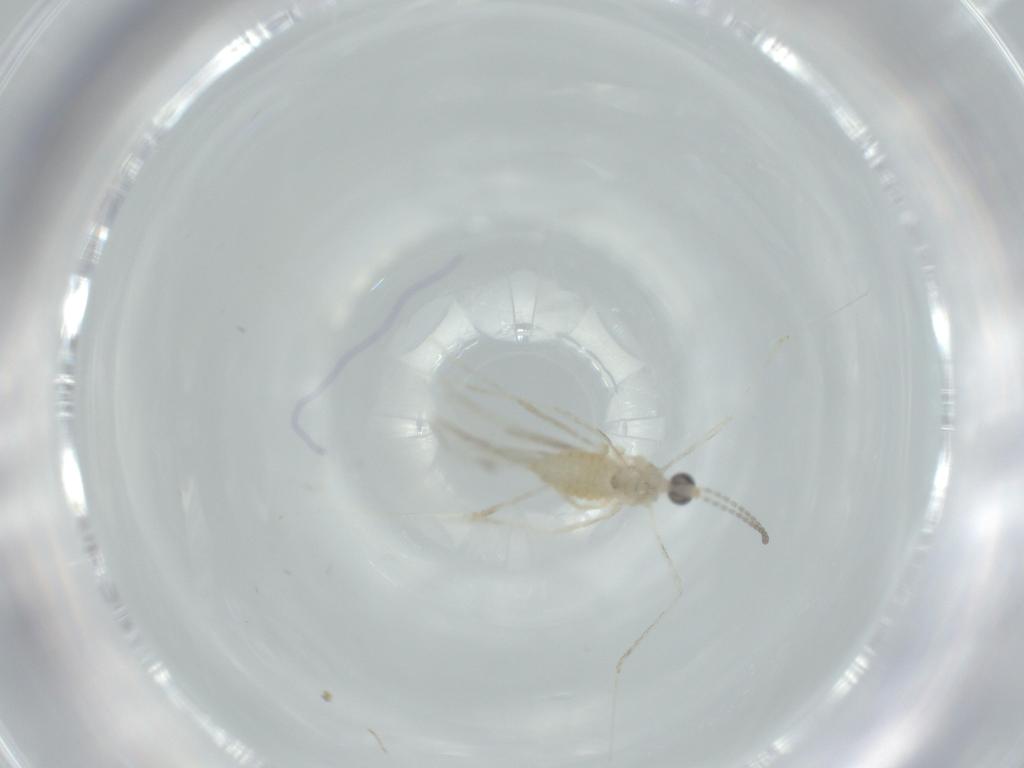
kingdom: Animalia
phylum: Arthropoda
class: Insecta
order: Diptera
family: Cecidomyiidae
